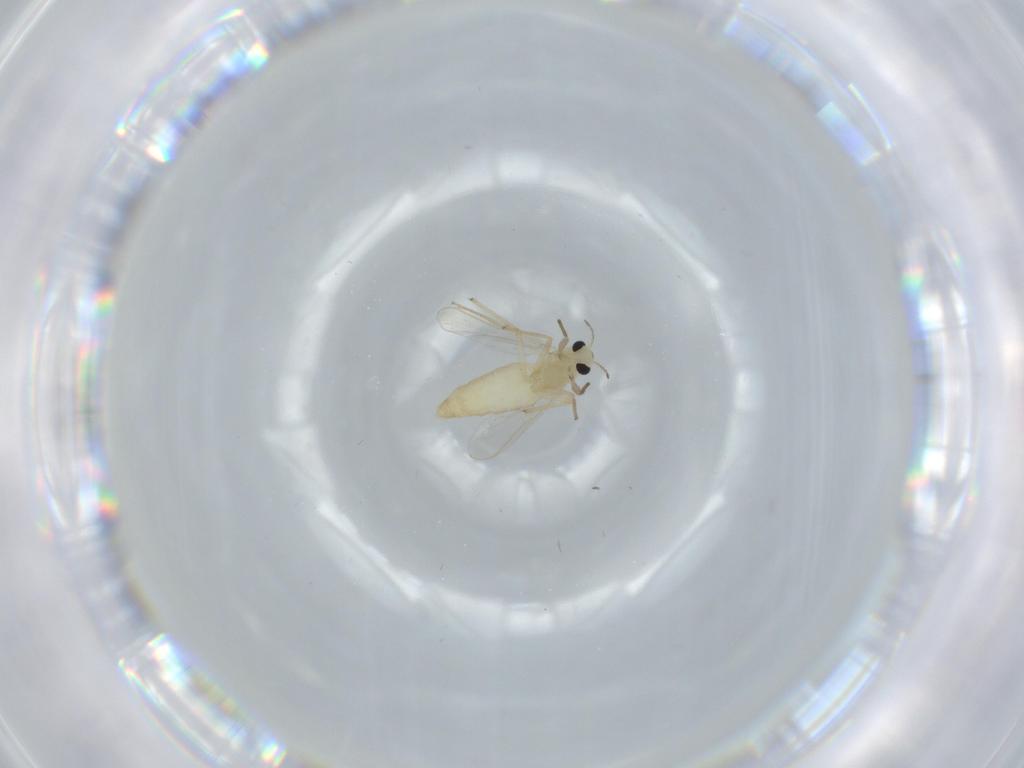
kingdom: Animalia
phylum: Arthropoda
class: Insecta
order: Diptera
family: Chironomidae
